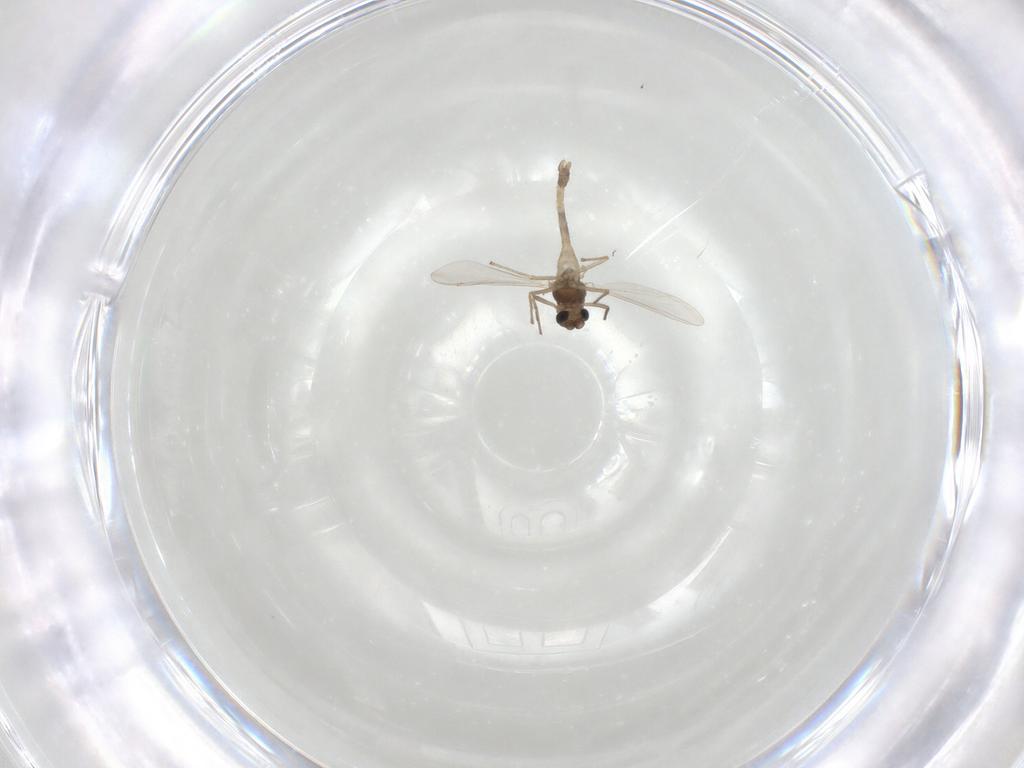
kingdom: Animalia
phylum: Arthropoda
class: Insecta
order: Diptera
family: Chironomidae
